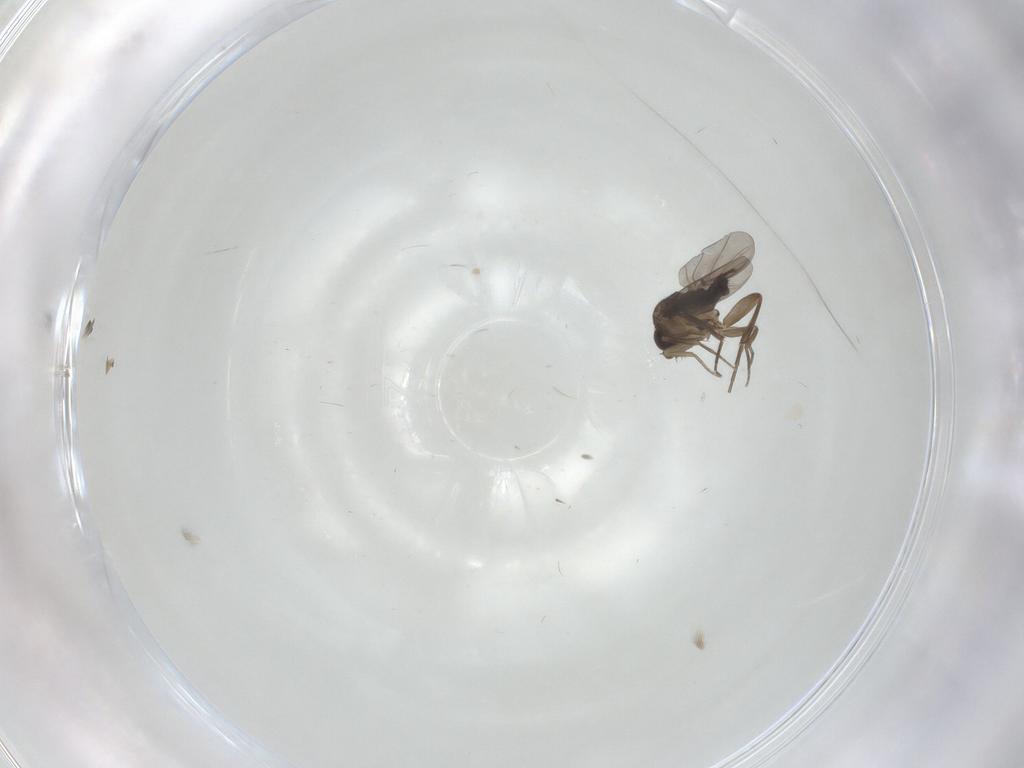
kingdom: Animalia
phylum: Arthropoda
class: Insecta
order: Diptera
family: Phoridae
